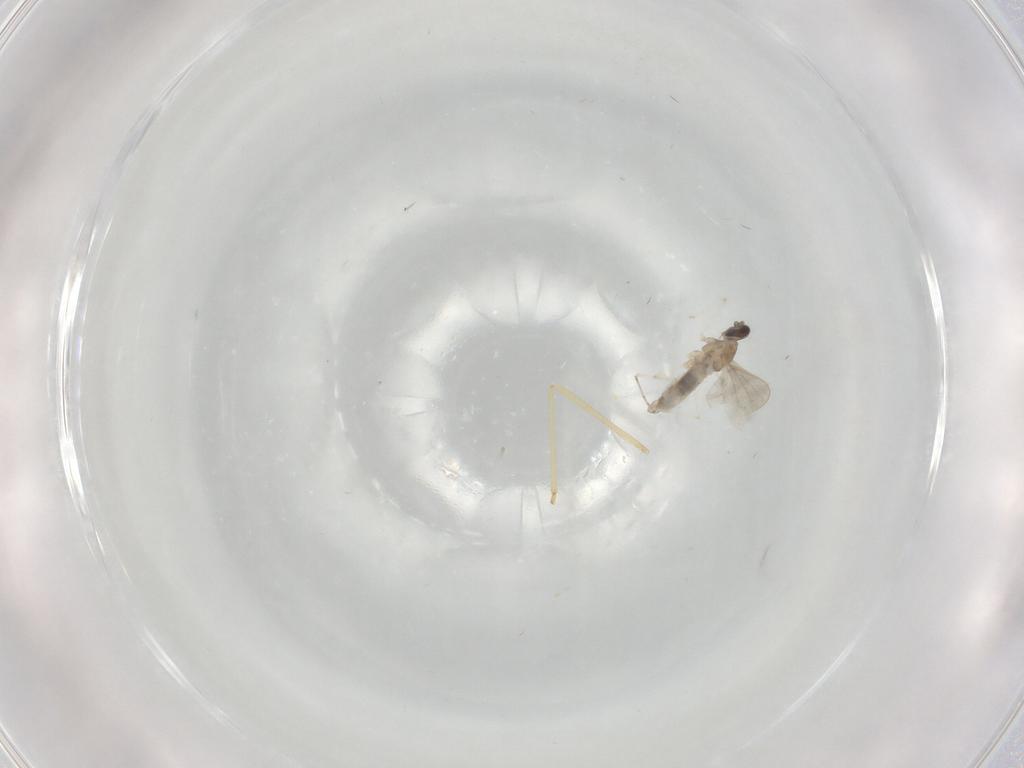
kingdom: Animalia
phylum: Arthropoda
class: Insecta
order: Diptera
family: Cecidomyiidae
